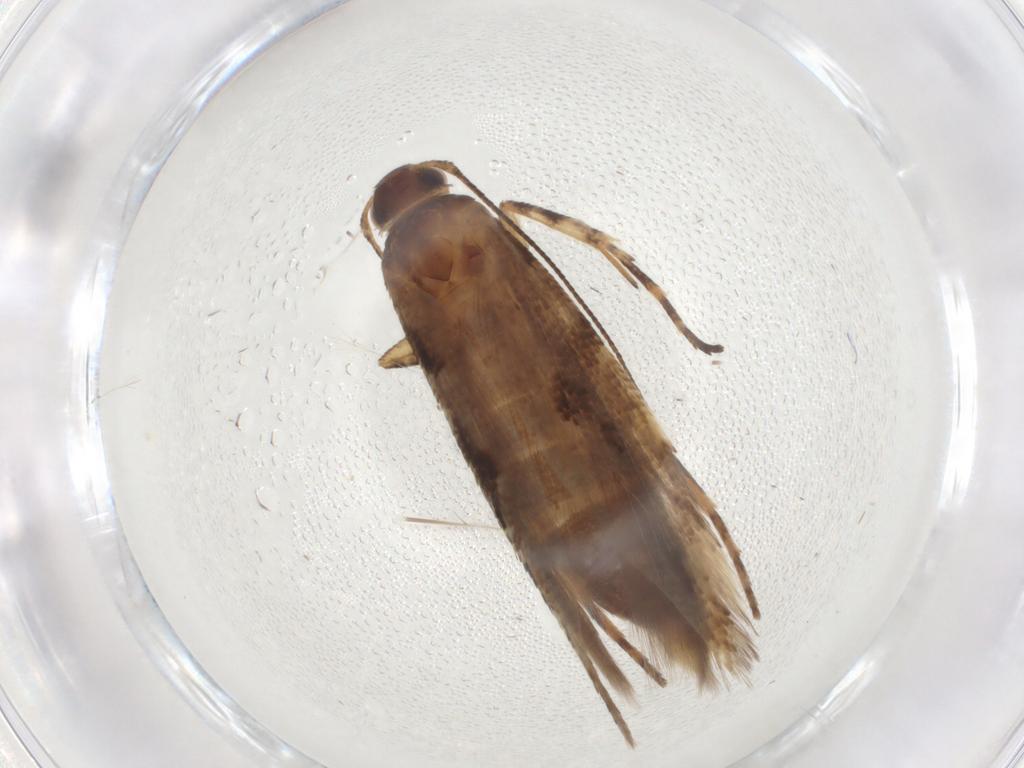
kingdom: Animalia
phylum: Arthropoda
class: Insecta
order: Lepidoptera
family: Gelechiidae
